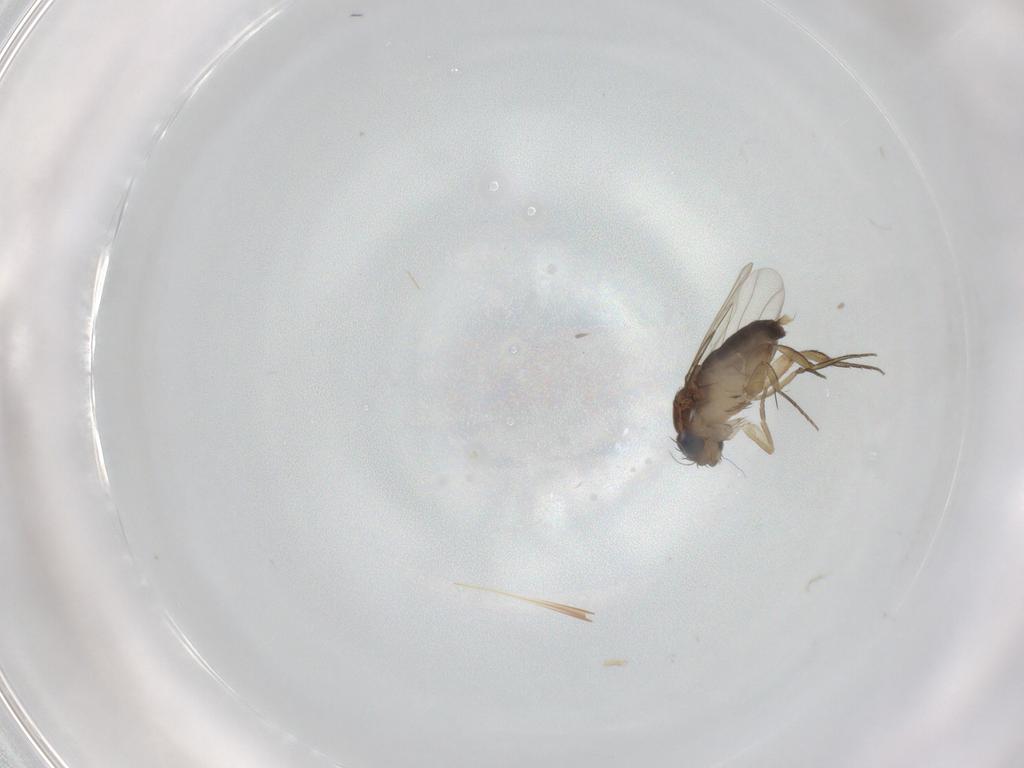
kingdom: Animalia
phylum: Arthropoda
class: Insecta
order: Diptera
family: Phoridae
